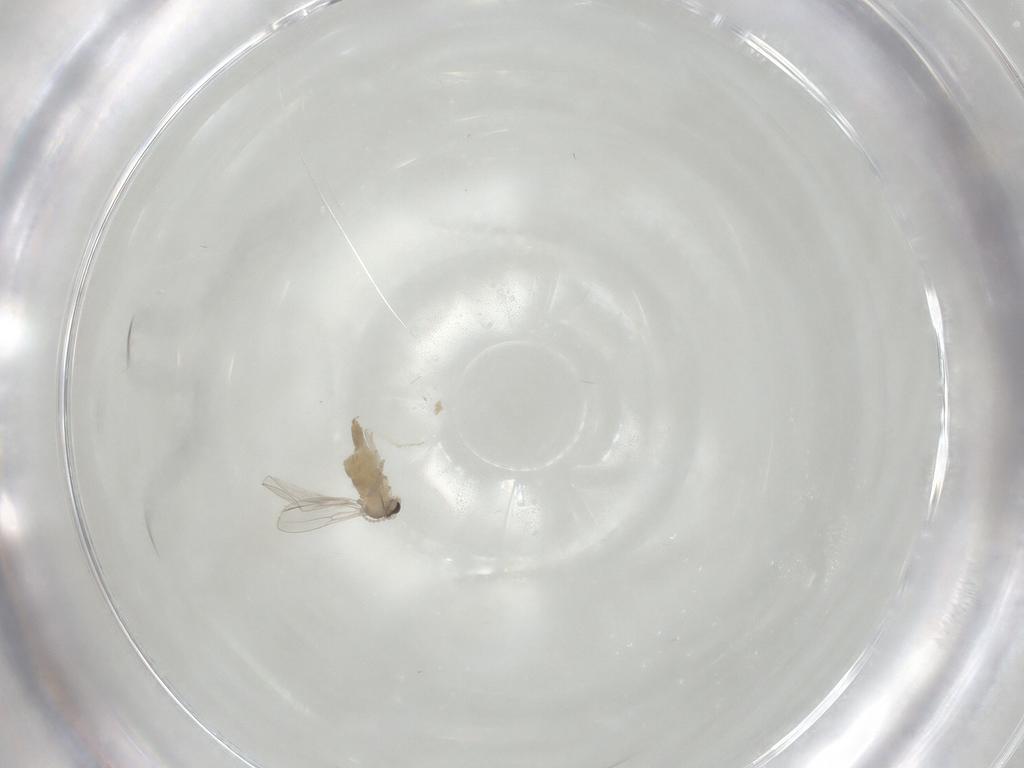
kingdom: Animalia
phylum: Arthropoda
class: Insecta
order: Diptera
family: Cecidomyiidae
